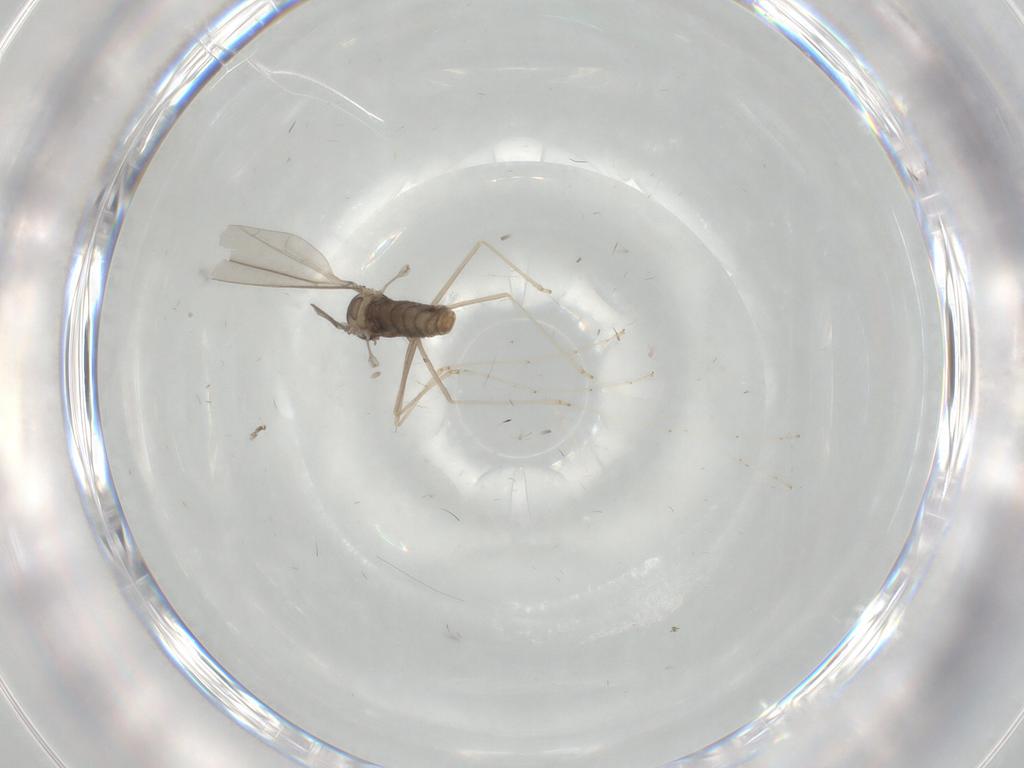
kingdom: Animalia
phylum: Arthropoda
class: Insecta
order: Diptera
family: Cecidomyiidae
